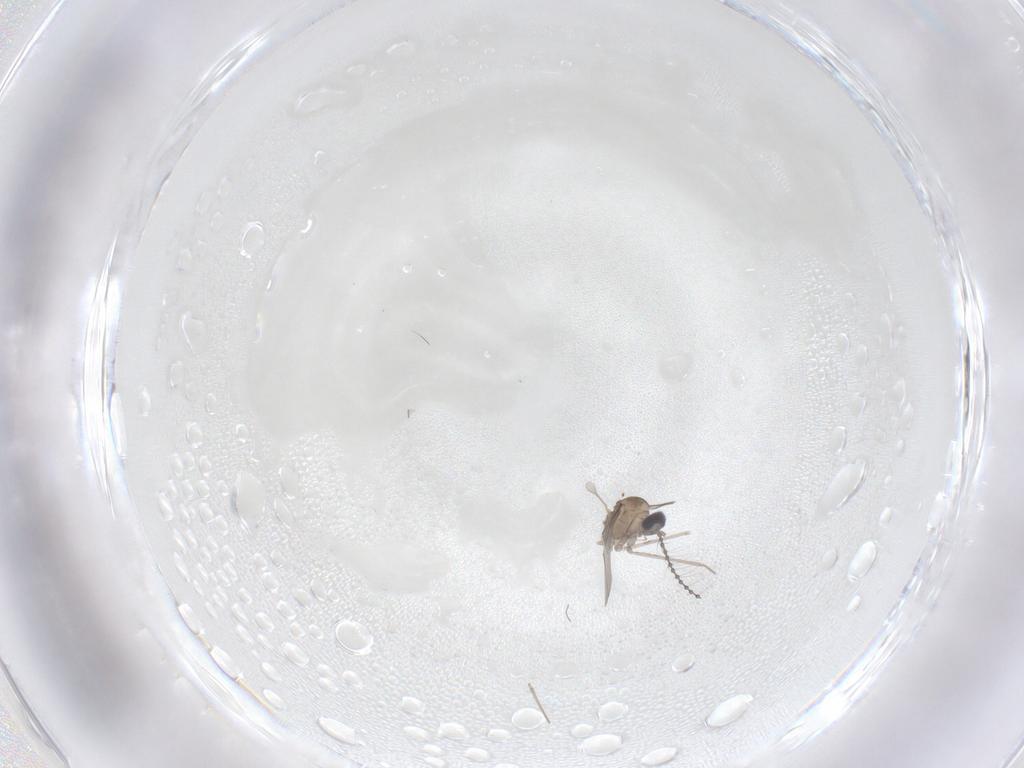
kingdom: Animalia
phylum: Arthropoda
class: Insecta
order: Diptera
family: Cecidomyiidae
